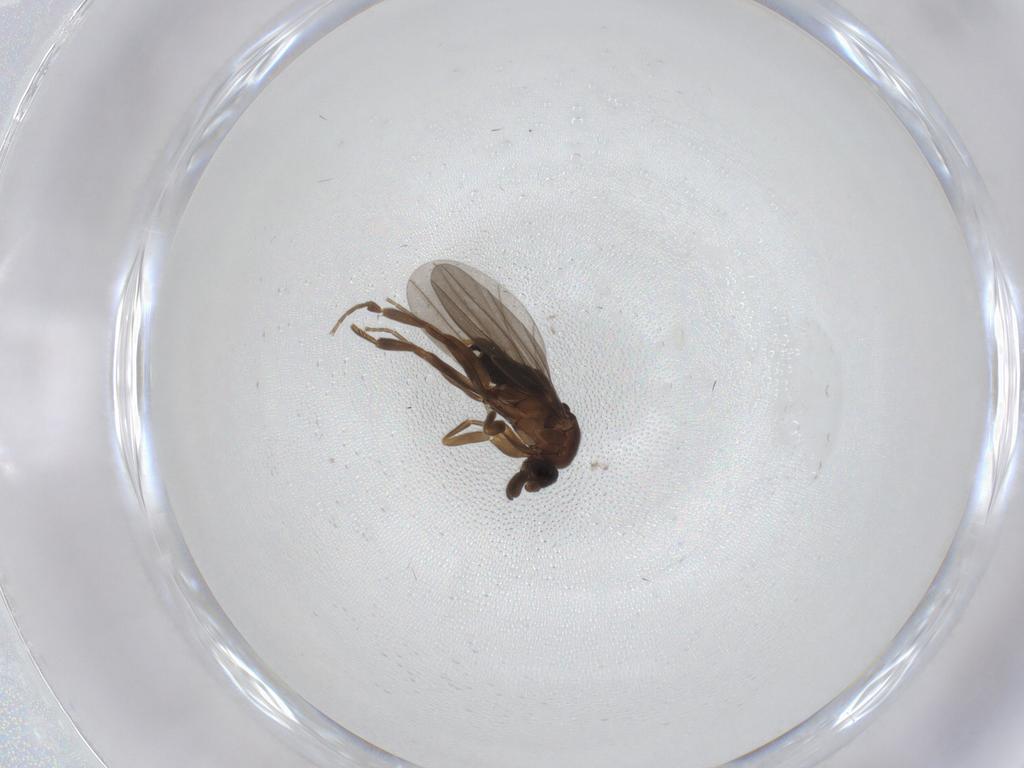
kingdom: Animalia
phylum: Arthropoda
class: Insecta
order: Diptera
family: Phoridae
